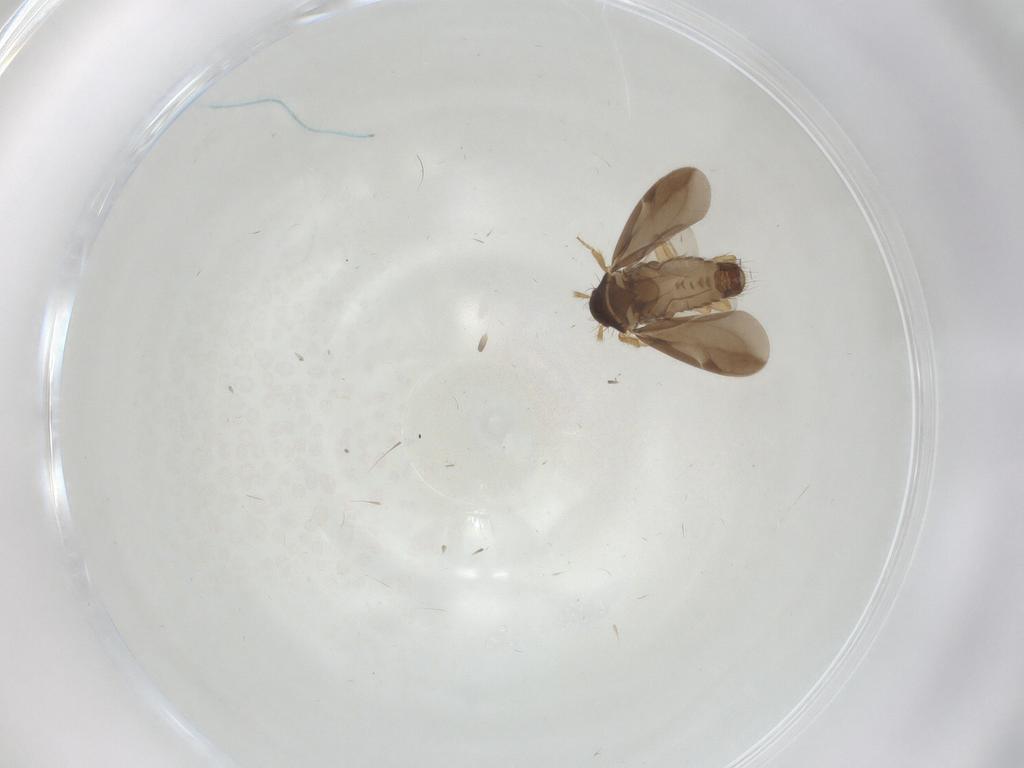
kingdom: Animalia
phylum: Arthropoda
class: Insecta
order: Hemiptera
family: Ceratocombidae
